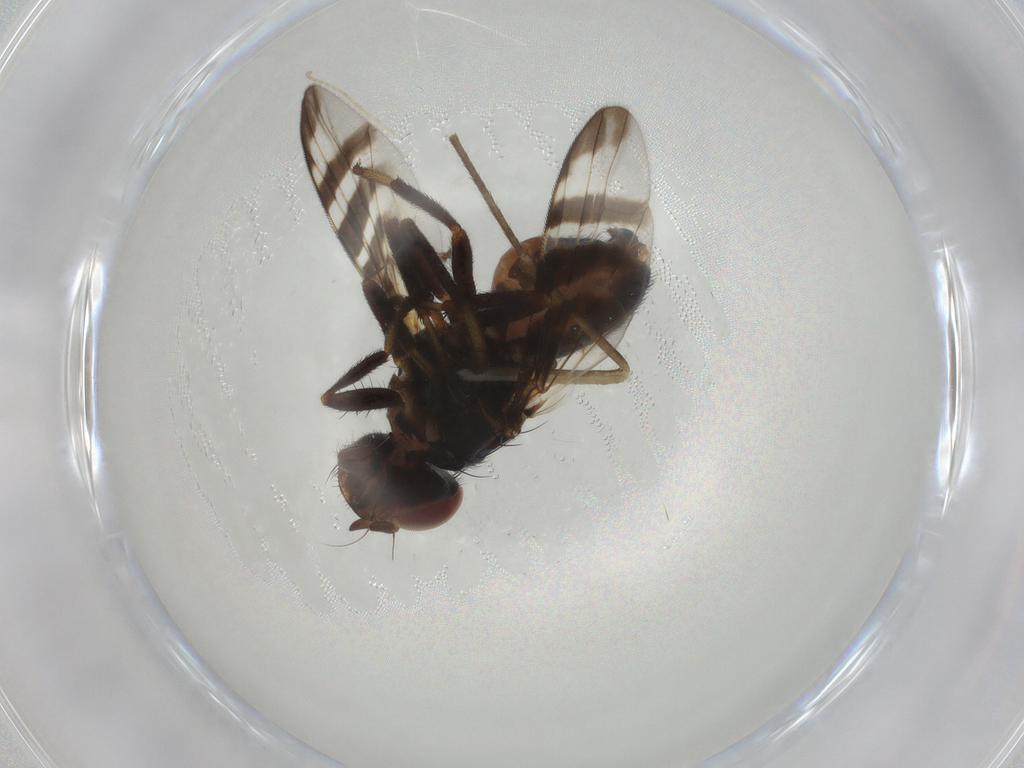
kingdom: Animalia
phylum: Arthropoda
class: Insecta
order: Diptera
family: Platystomatidae
